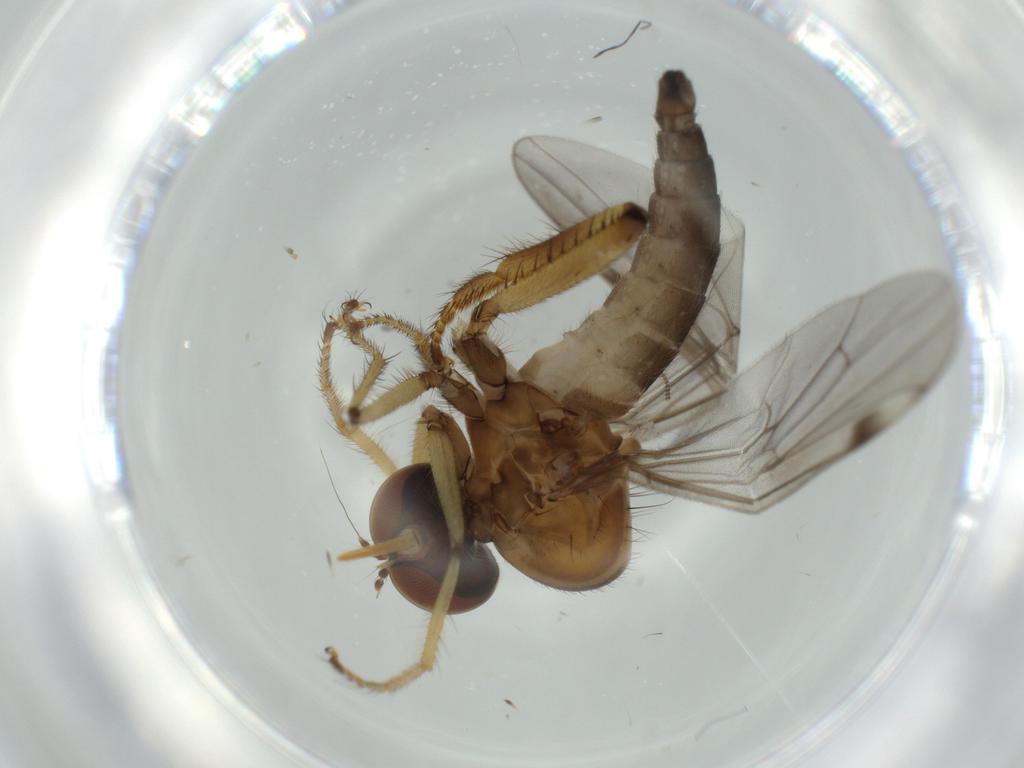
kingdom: Animalia
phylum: Arthropoda
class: Insecta
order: Diptera
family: Hybotidae
